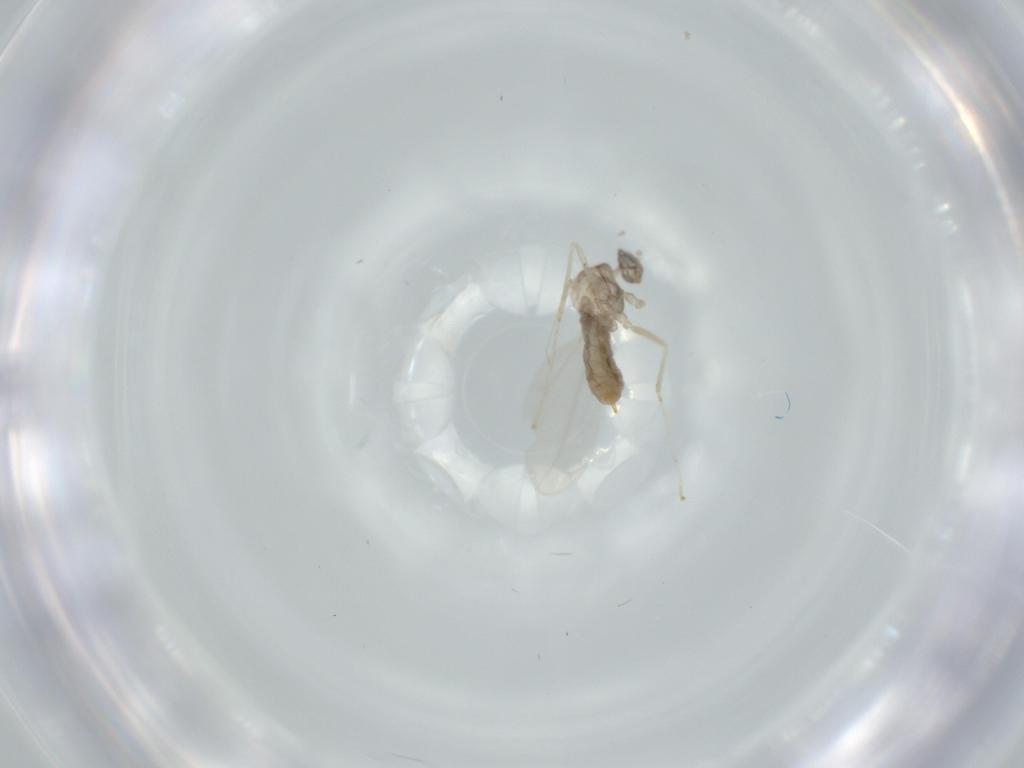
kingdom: Animalia
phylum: Arthropoda
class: Insecta
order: Diptera
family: Cecidomyiidae
